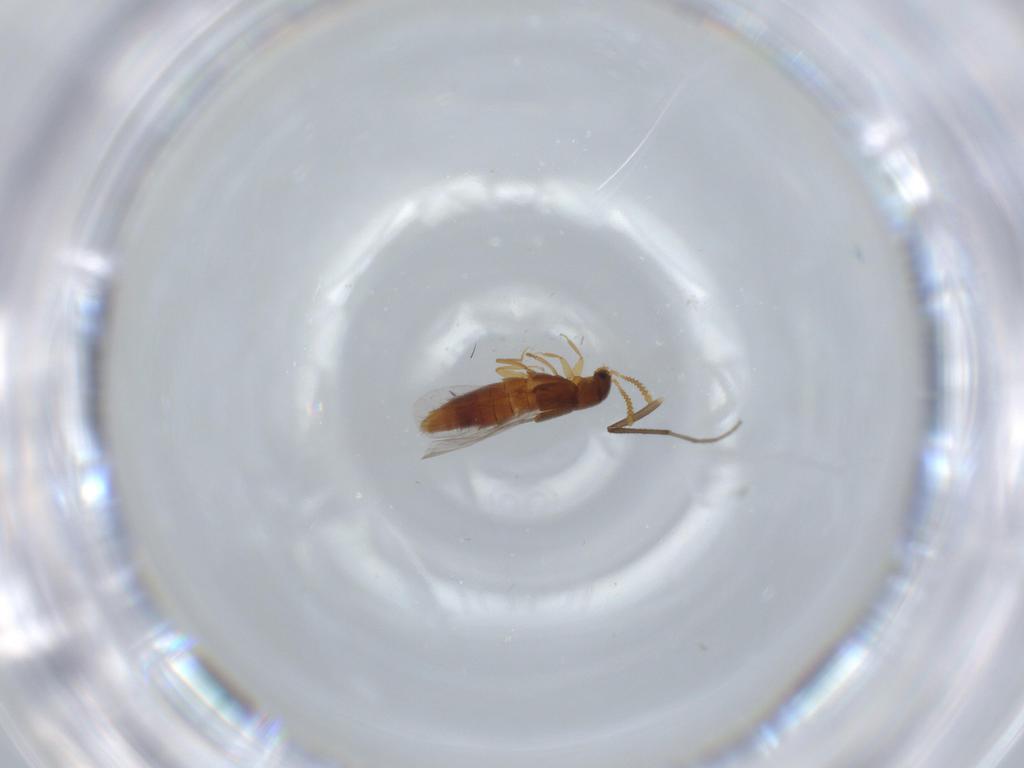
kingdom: Animalia
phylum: Arthropoda
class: Insecta
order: Coleoptera
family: Staphylinidae
